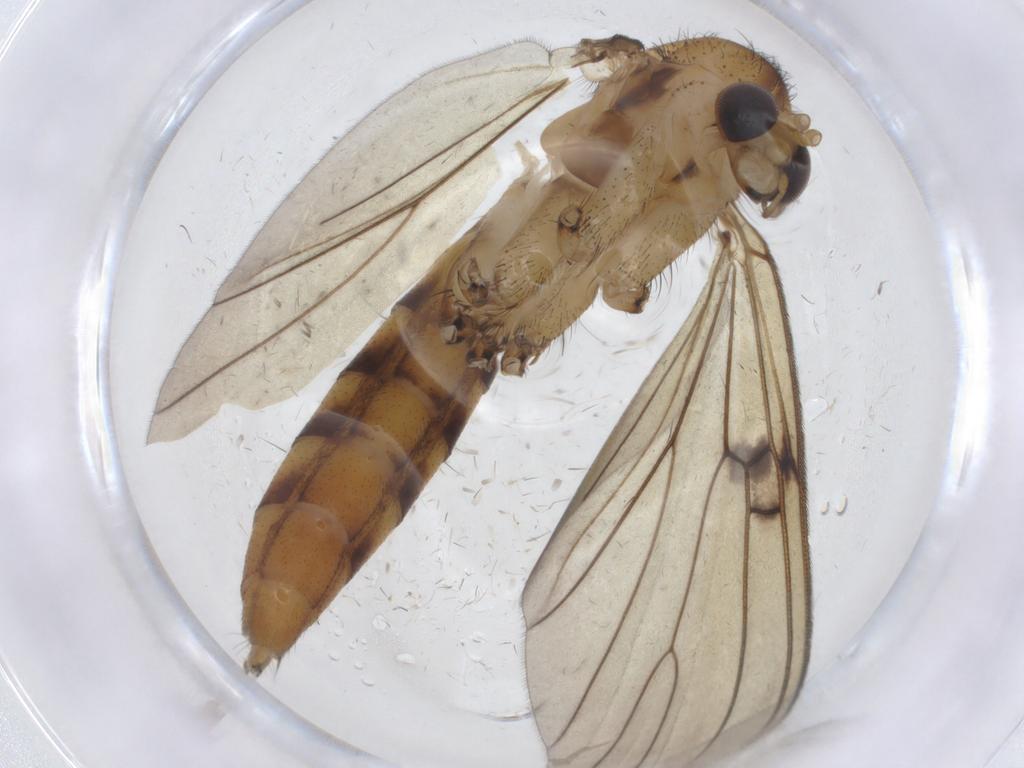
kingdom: Animalia
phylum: Arthropoda
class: Insecta
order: Diptera
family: Mycetophilidae
